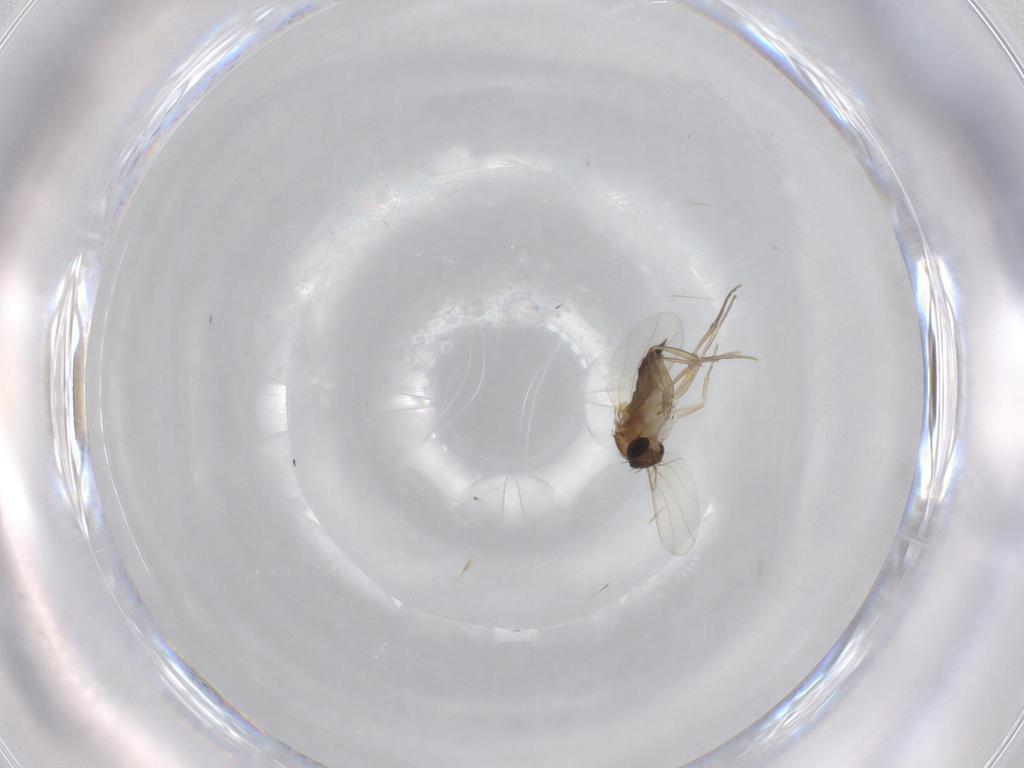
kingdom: Animalia
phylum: Arthropoda
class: Insecta
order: Diptera
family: Phoridae
